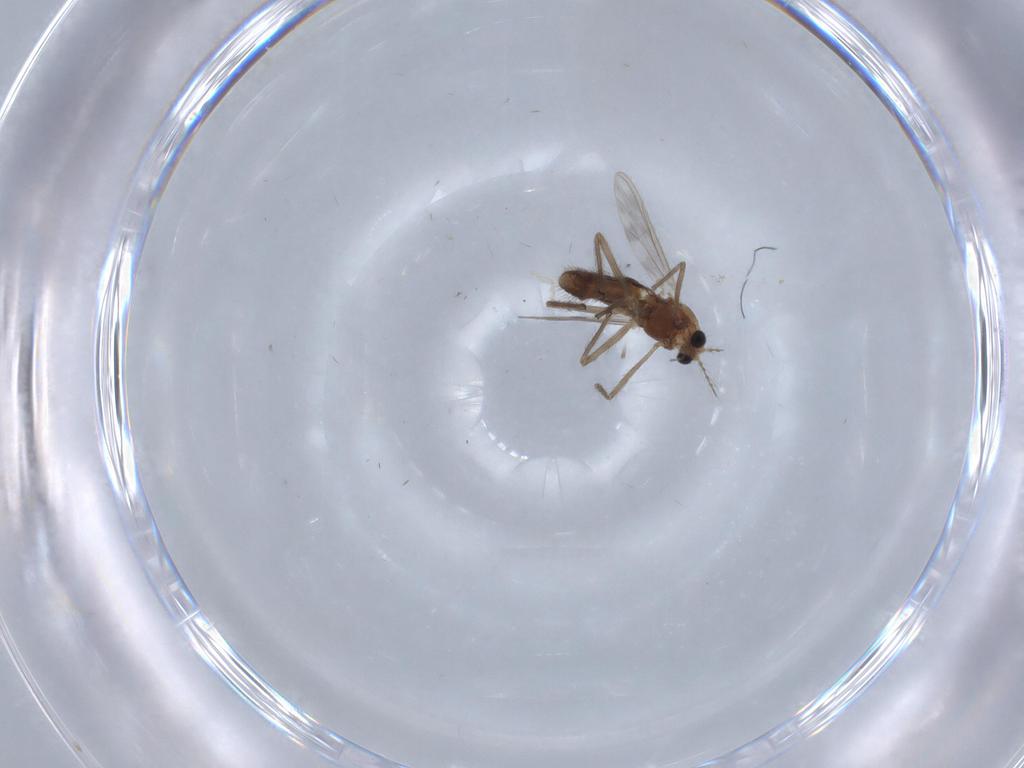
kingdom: Animalia
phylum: Arthropoda
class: Insecta
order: Diptera
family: Chironomidae
